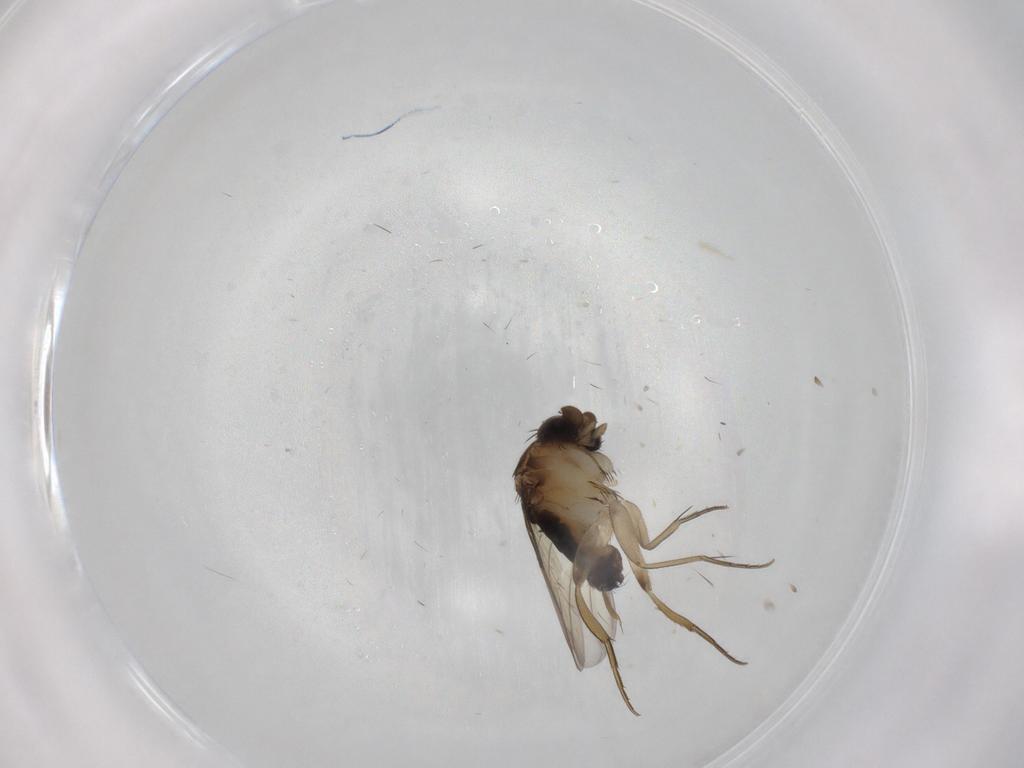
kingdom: Animalia
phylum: Arthropoda
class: Insecta
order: Diptera
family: Phoridae
